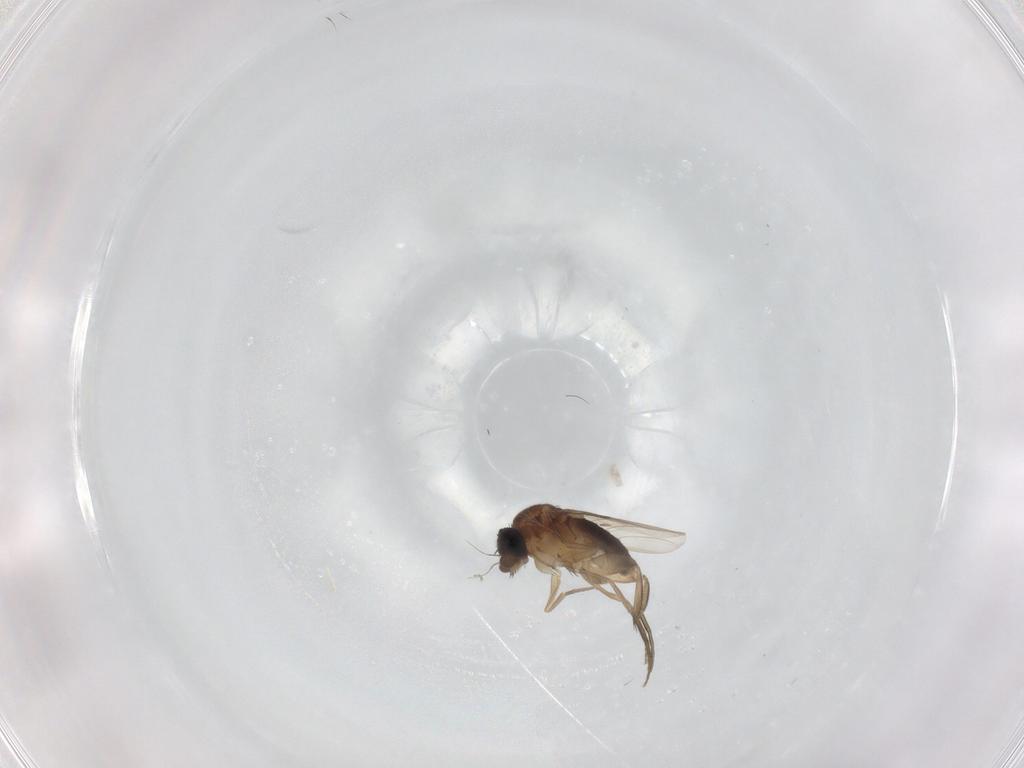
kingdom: Animalia
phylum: Arthropoda
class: Insecta
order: Diptera
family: Phoridae
